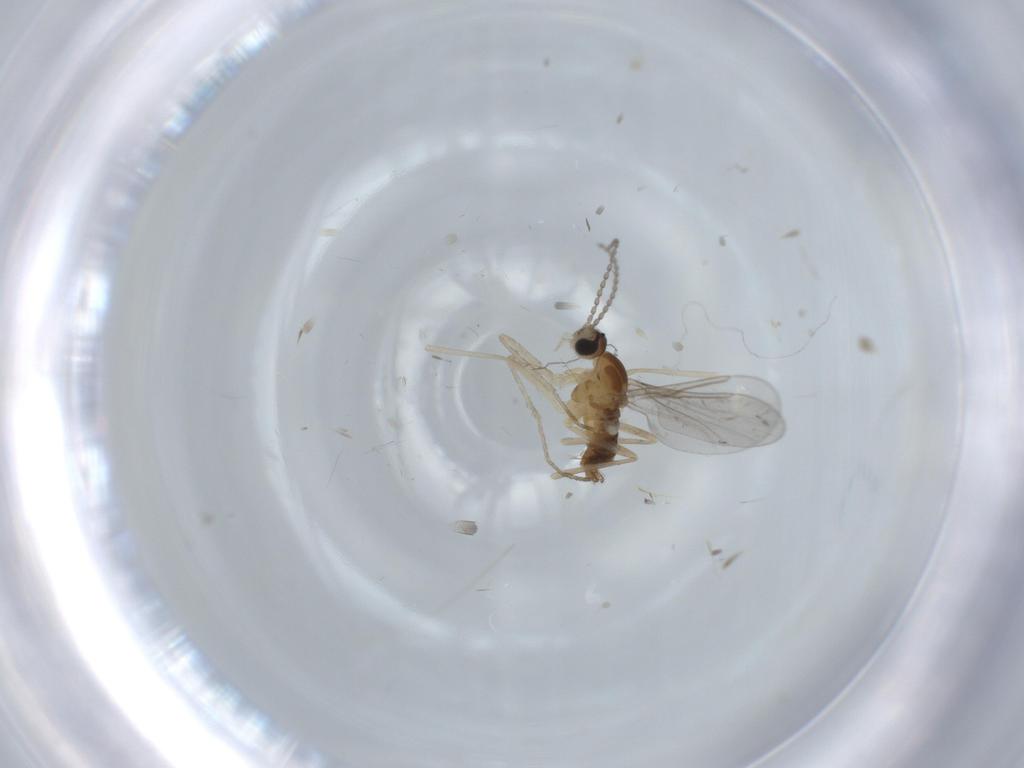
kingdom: Animalia
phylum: Arthropoda
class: Insecta
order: Diptera
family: Cecidomyiidae
